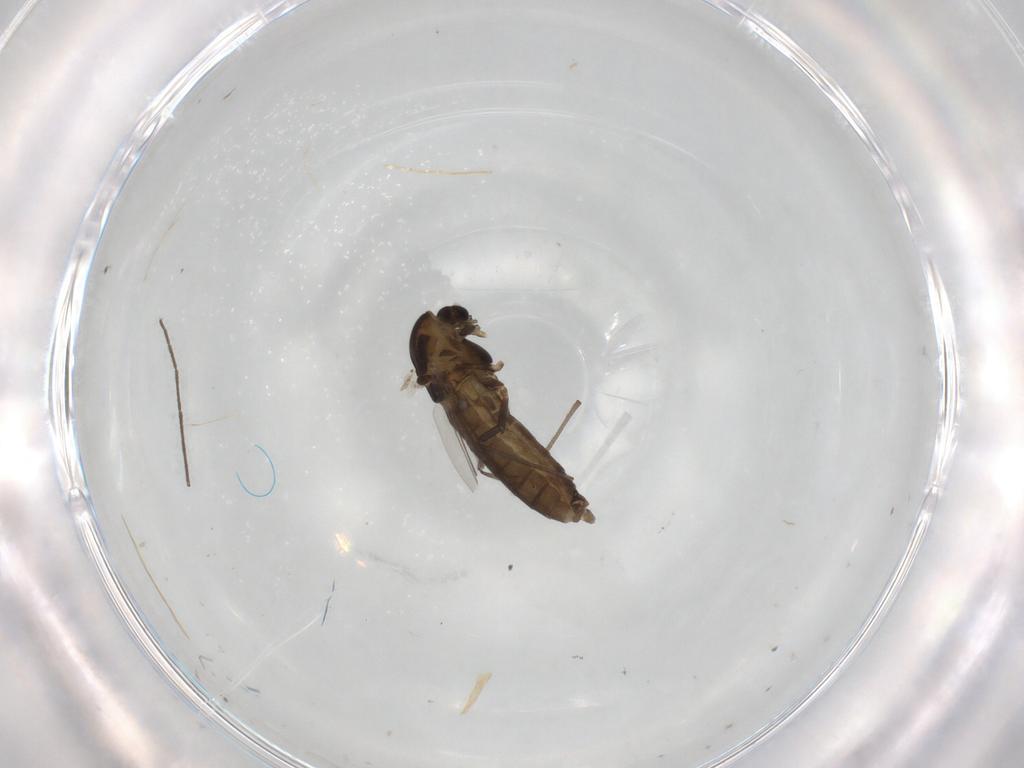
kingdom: Animalia
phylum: Arthropoda
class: Insecta
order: Diptera
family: Chironomidae
